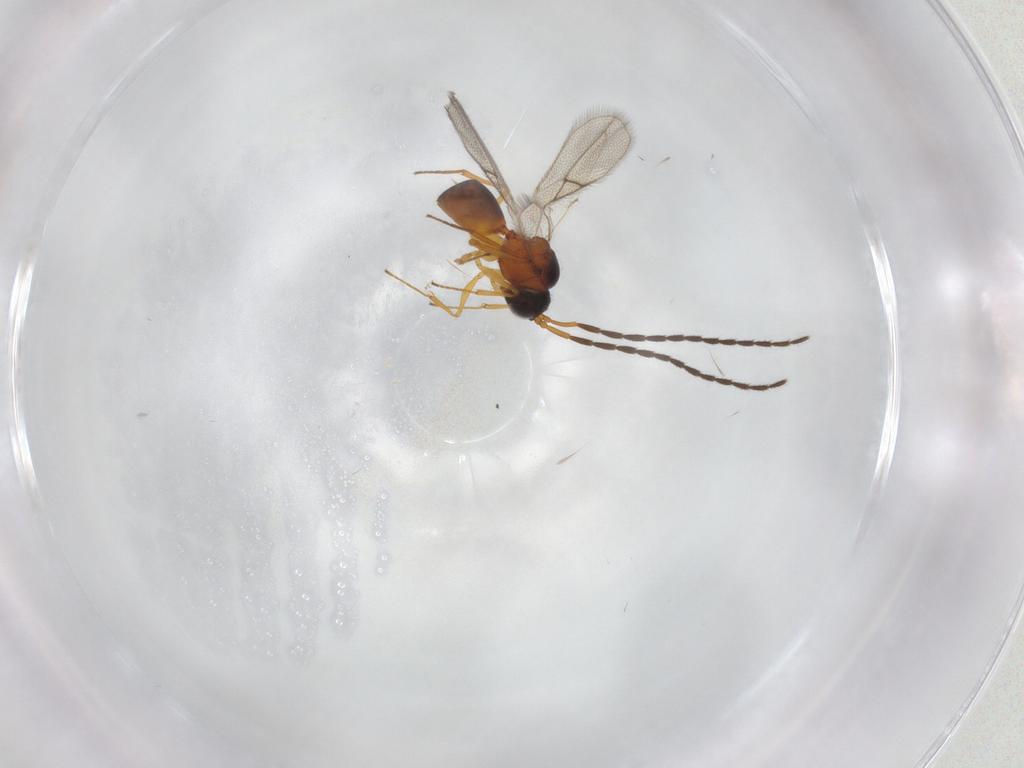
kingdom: Animalia
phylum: Arthropoda
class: Insecta
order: Hymenoptera
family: Figitidae
